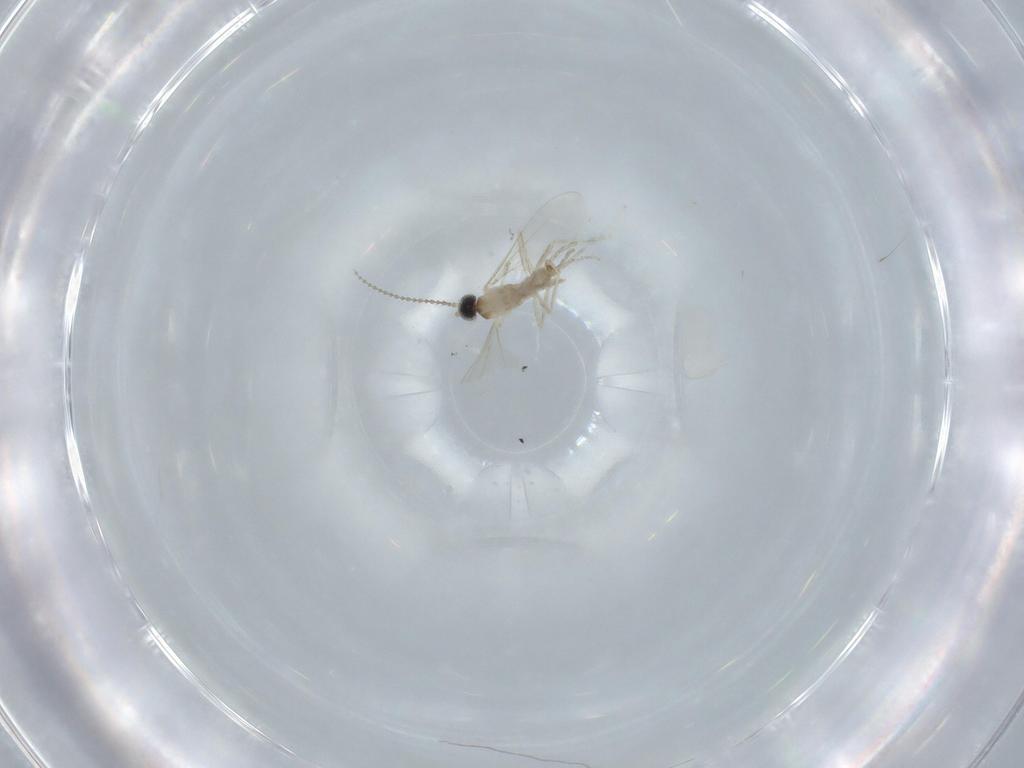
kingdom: Animalia
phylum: Arthropoda
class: Insecta
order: Diptera
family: Cecidomyiidae
